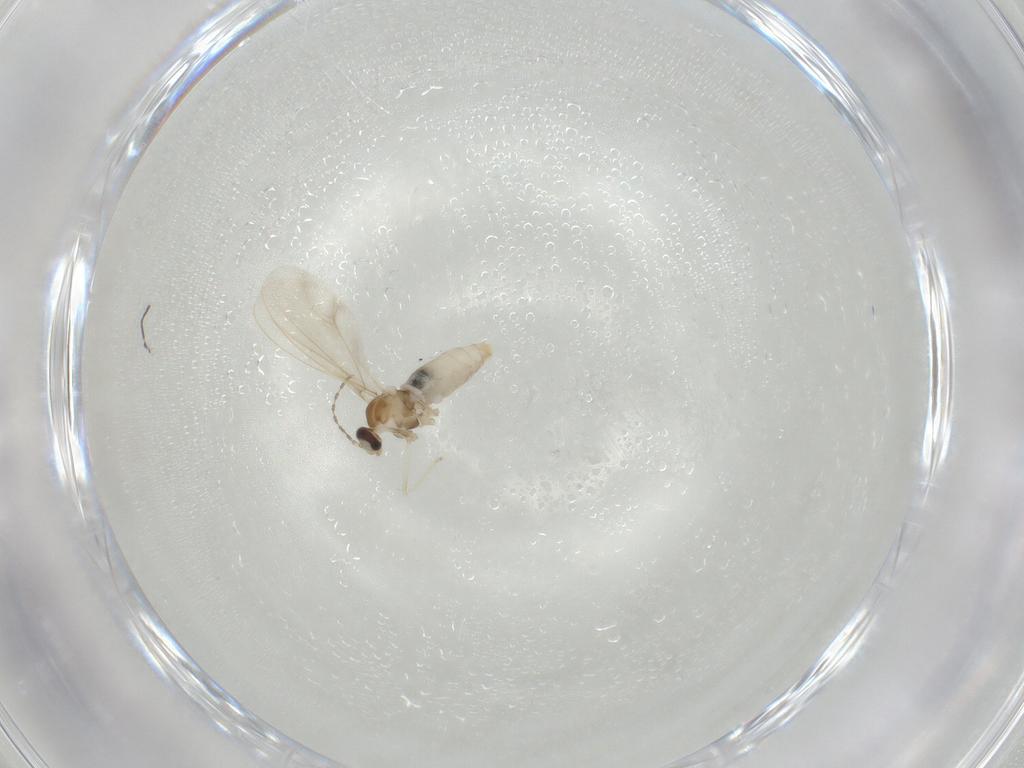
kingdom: Animalia
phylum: Arthropoda
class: Insecta
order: Diptera
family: Cecidomyiidae
